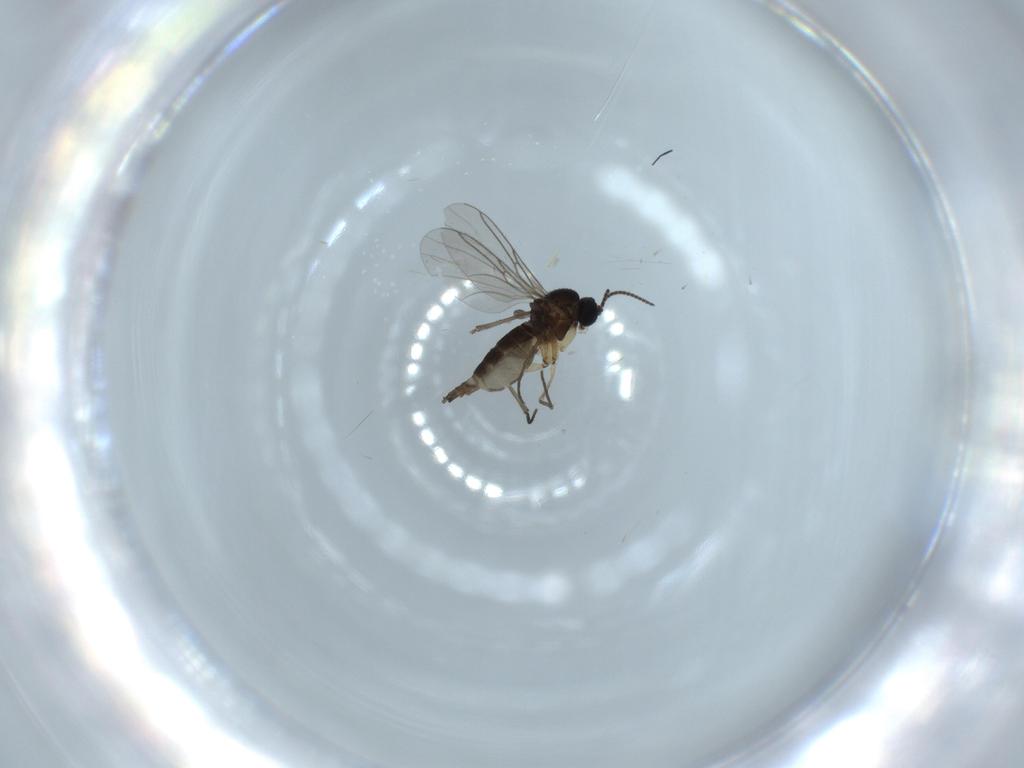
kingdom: Animalia
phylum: Arthropoda
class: Insecta
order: Diptera
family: Sciaridae
